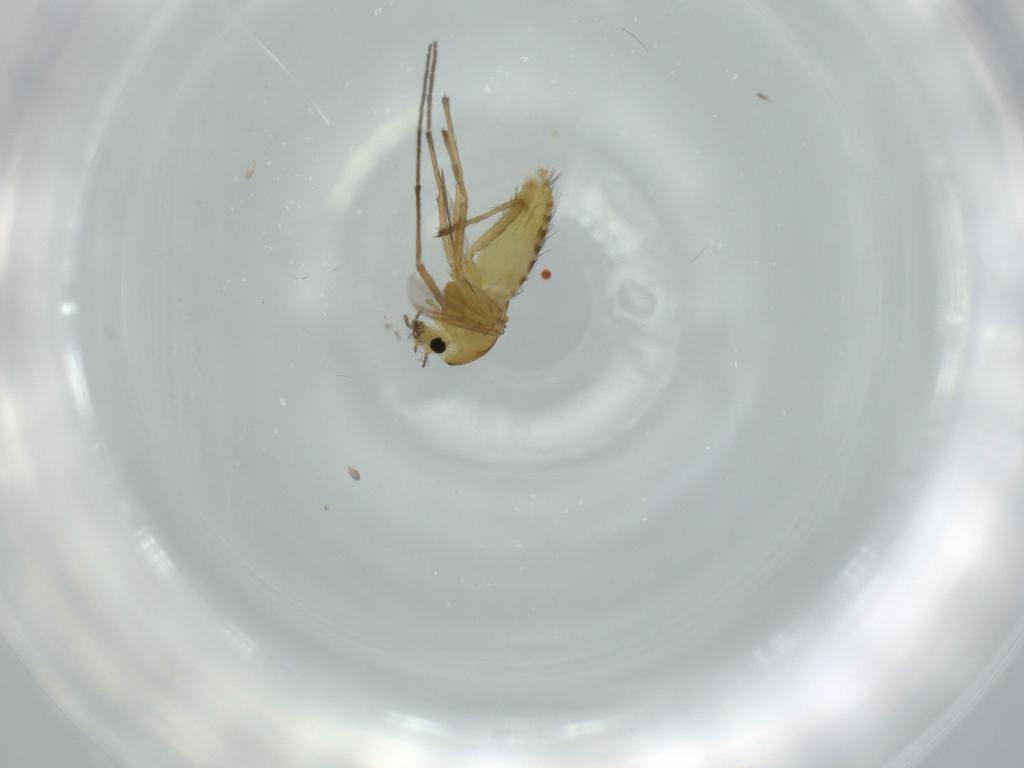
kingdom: Animalia
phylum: Arthropoda
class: Insecta
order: Diptera
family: Chironomidae
